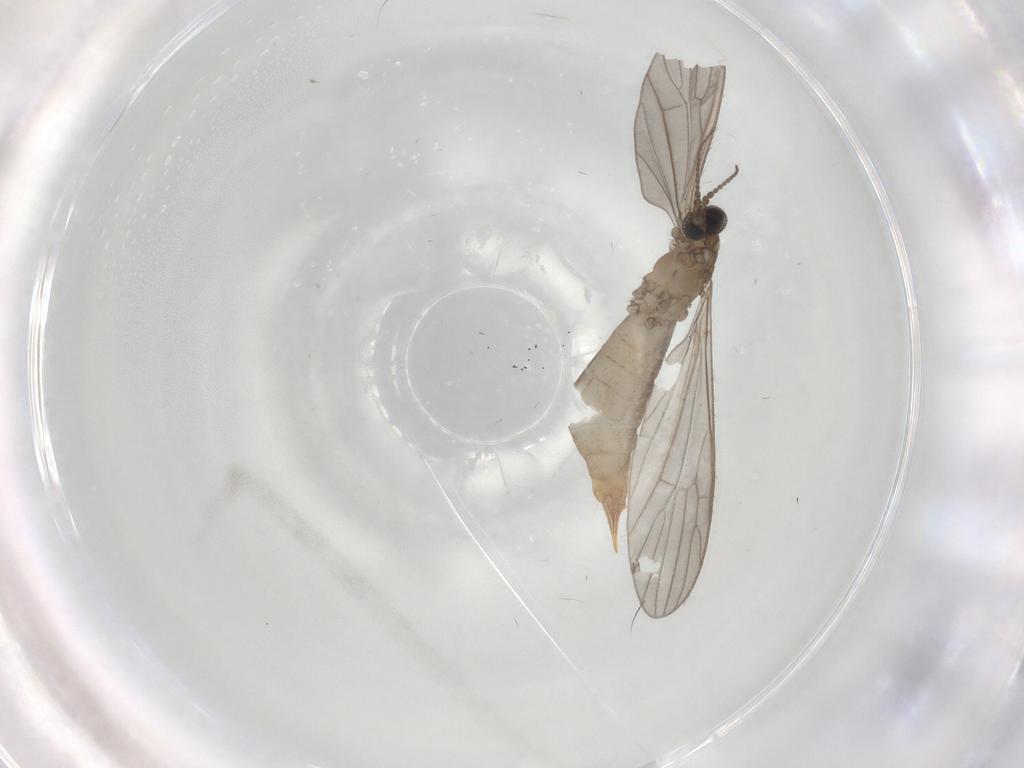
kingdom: Animalia
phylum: Arthropoda
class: Insecta
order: Diptera
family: Limoniidae
